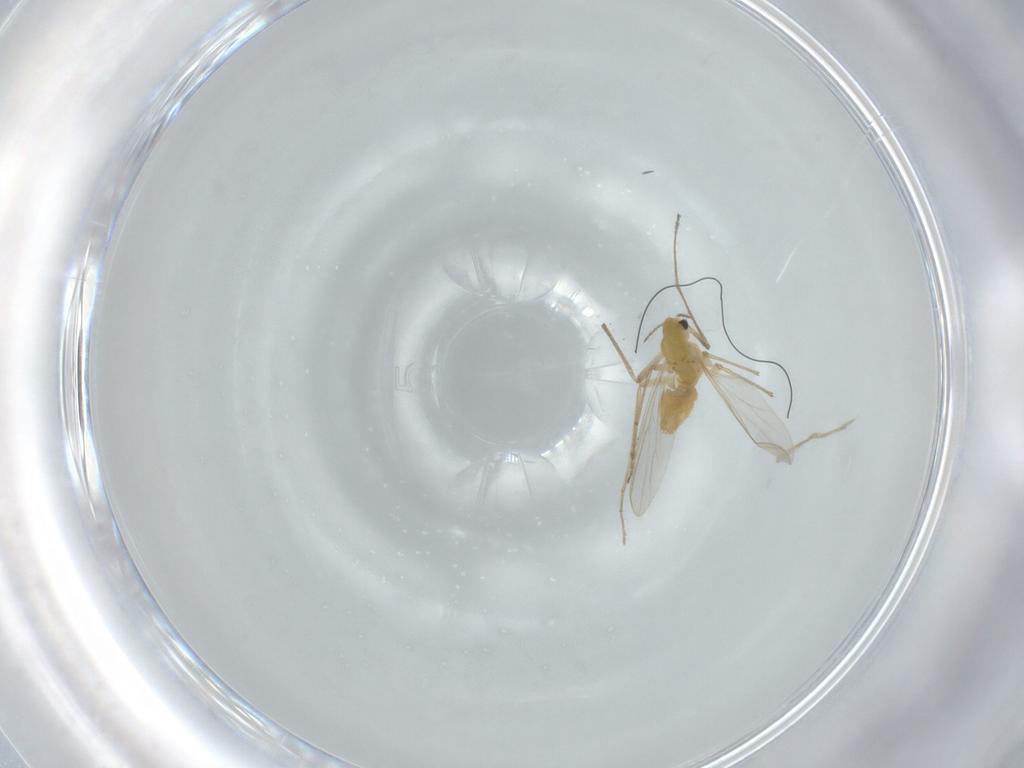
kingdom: Animalia
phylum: Arthropoda
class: Insecta
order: Diptera
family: Chironomidae
